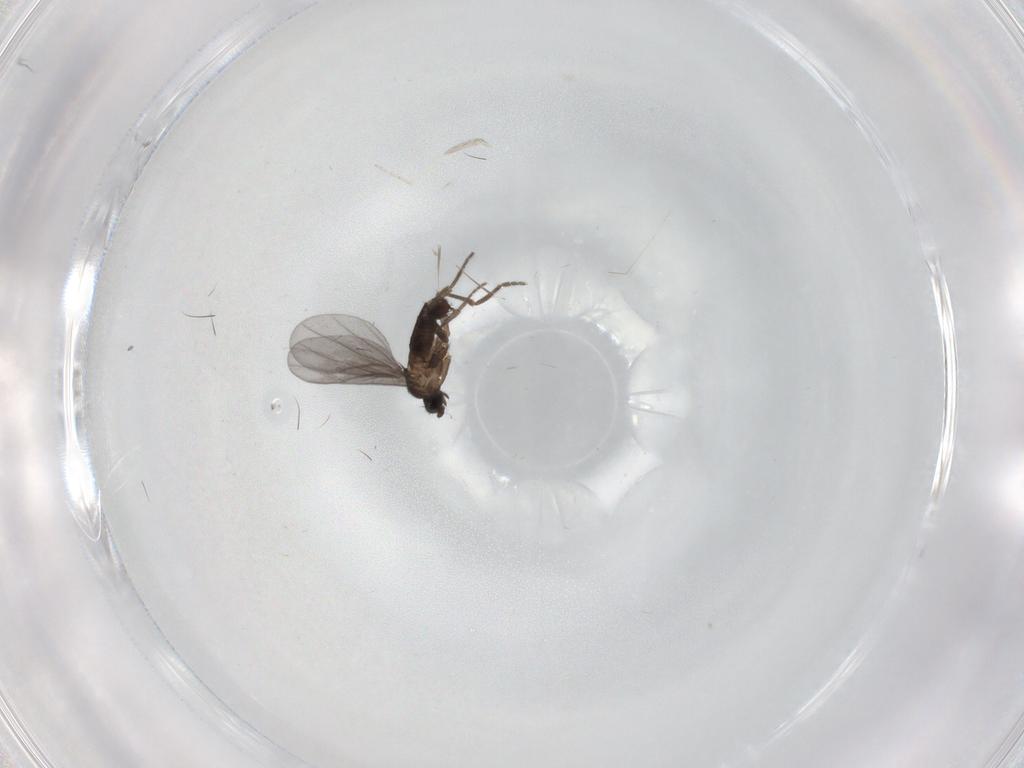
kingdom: Animalia
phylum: Arthropoda
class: Insecta
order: Diptera
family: Phoridae
